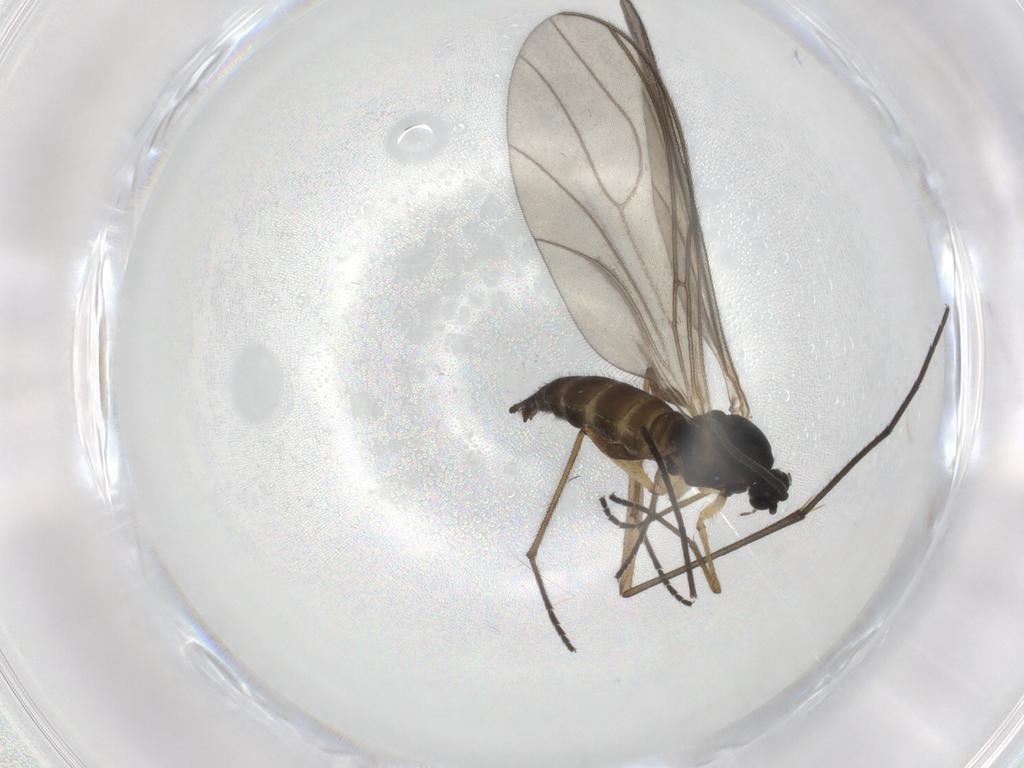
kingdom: Animalia
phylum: Arthropoda
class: Insecta
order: Diptera
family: Sciaridae
